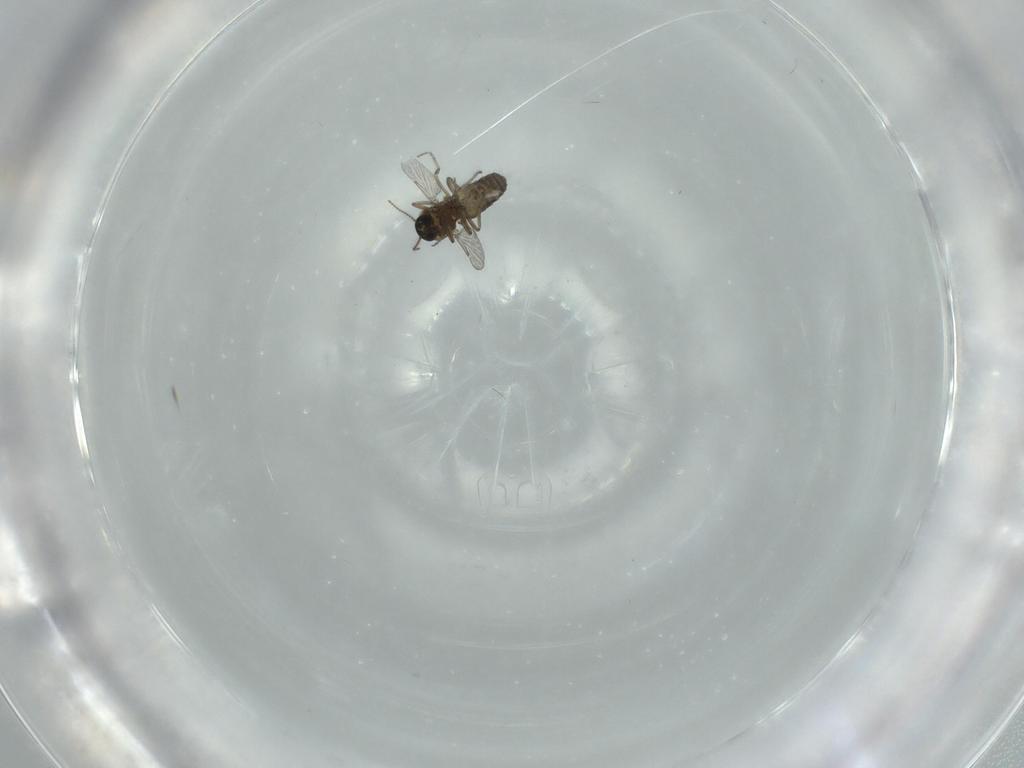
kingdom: Animalia
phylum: Arthropoda
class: Insecta
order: Diptera
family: Ceratopogonidae
